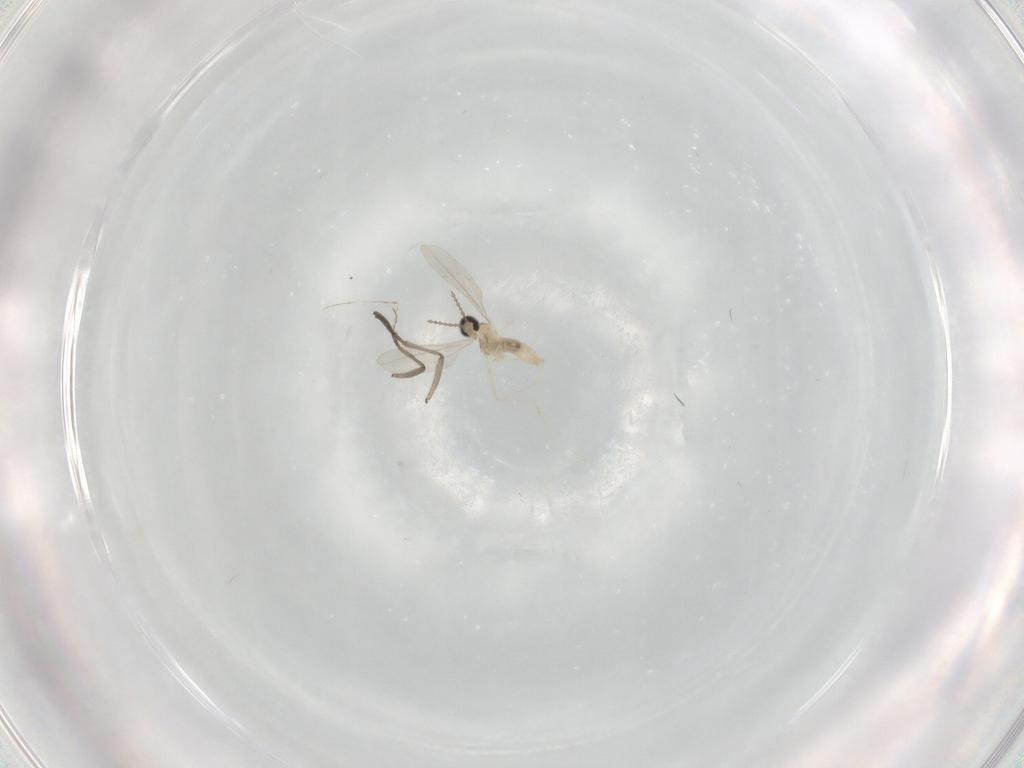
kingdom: Animalia
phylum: Arthropoda
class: Insecta
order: Diptera
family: Cecidomyiidae
